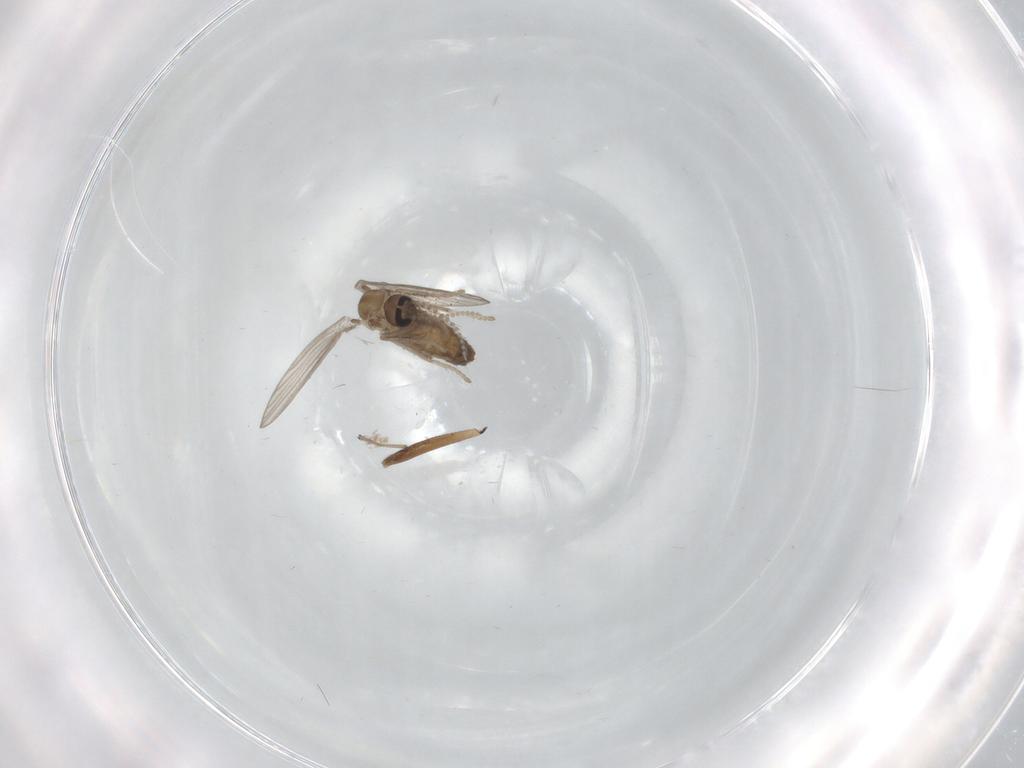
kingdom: Animalia
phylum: Arthropoda
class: Insecta
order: Diptera
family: Psychodidae
